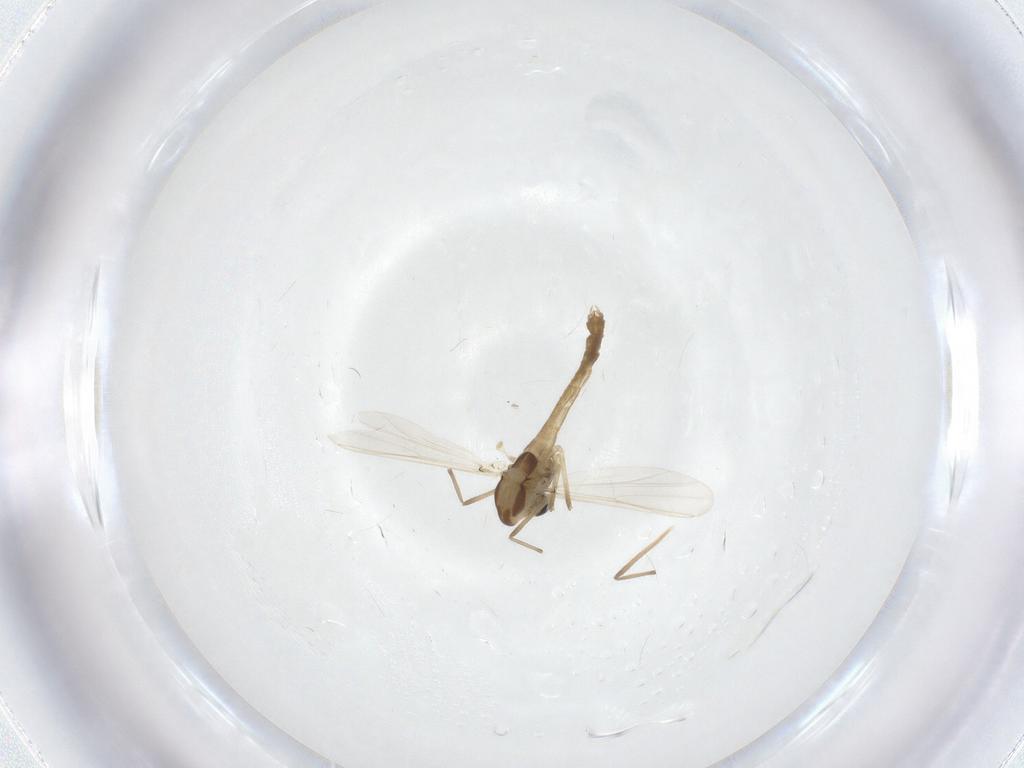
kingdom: Animalia
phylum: Arthropoda
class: Insecta
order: Diptera
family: Chironomidae
